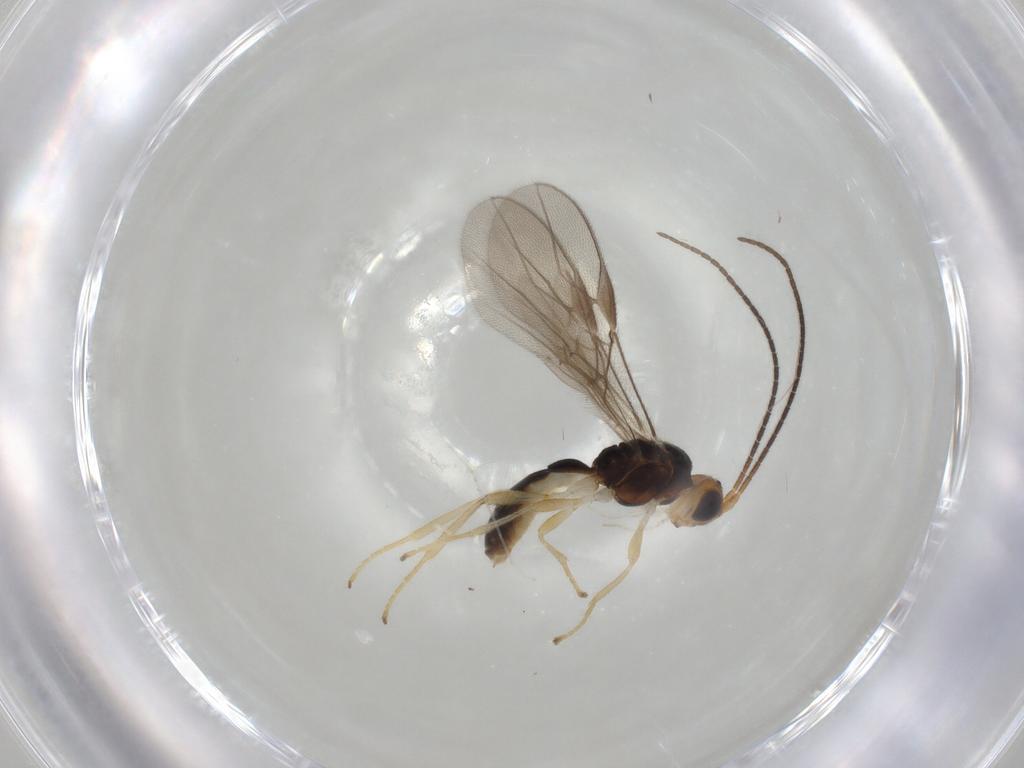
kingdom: Animalia
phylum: Arthropoda
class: Insecta
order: Hymenoptera
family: Braconidae
